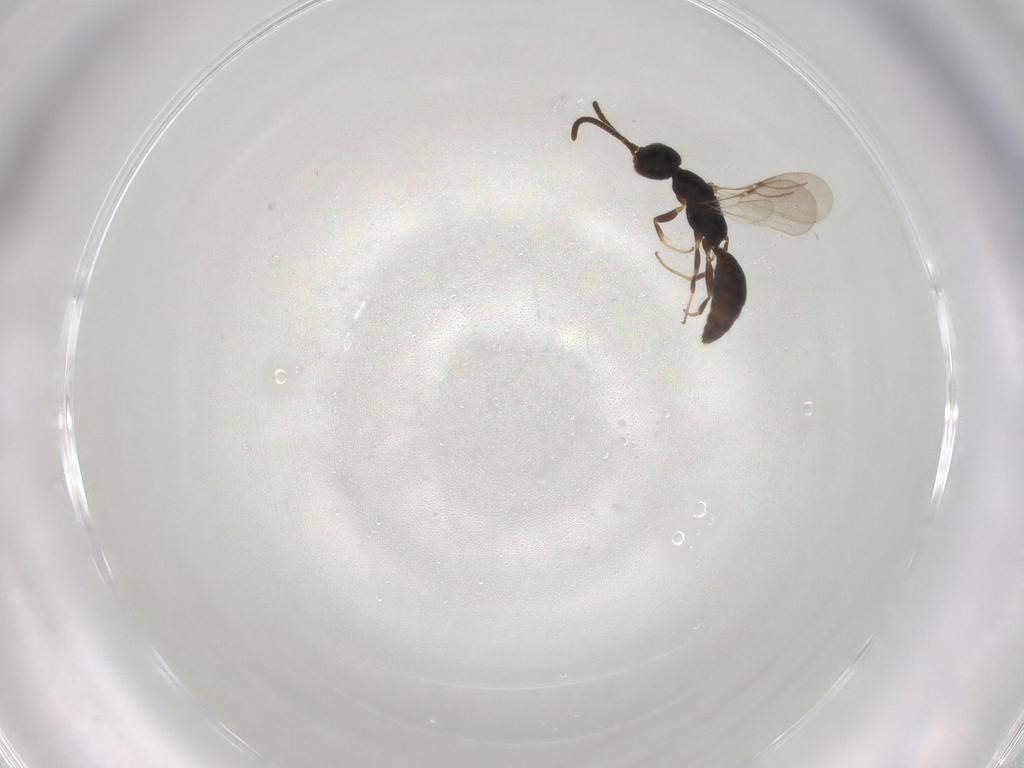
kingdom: Animalia
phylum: Arthropoda
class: Insecta
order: Hymenoptera
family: Bethylidae
